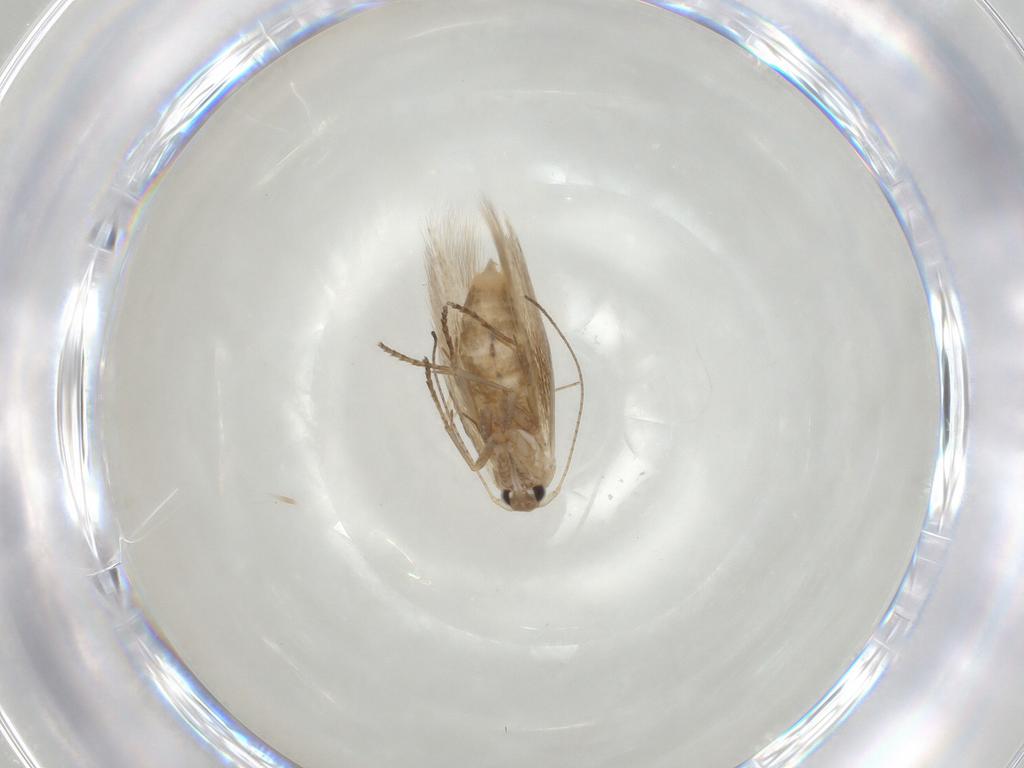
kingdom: Animalia
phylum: Arthropoda
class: Insecta
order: Lepidoptera
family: Bucculatricidae
